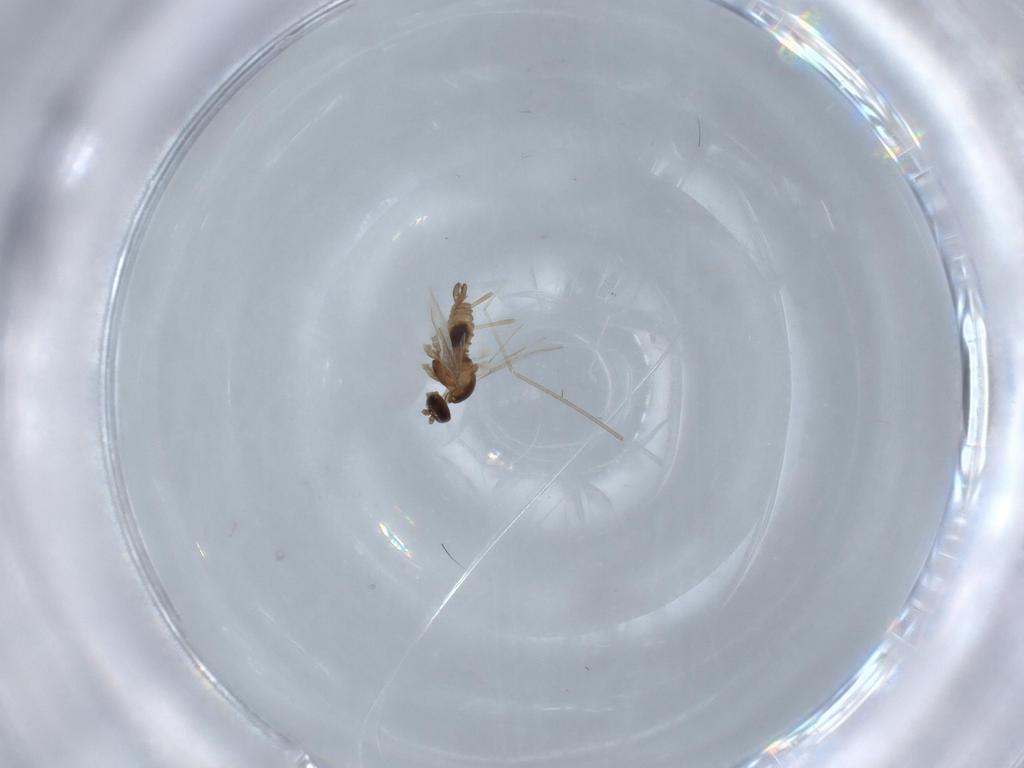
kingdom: Animalia
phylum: Arthropoda
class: Insecta
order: Diptera
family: Cecidomyiidae
